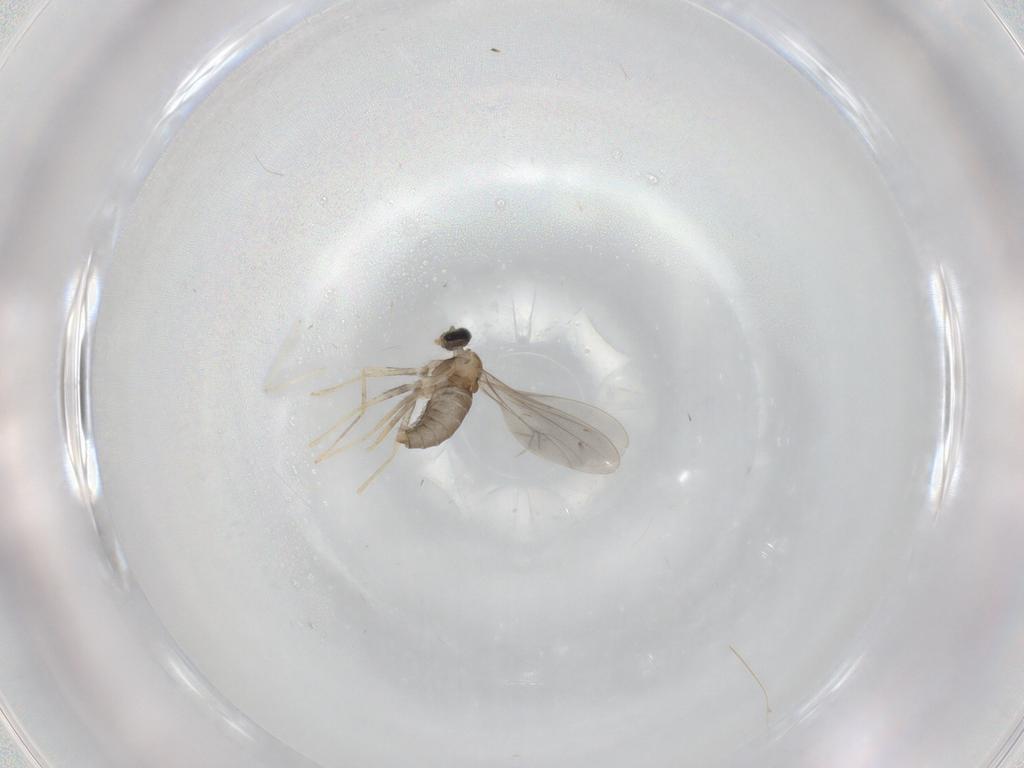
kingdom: Animalia
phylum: Arthropoda
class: Insecta
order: Diptera
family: Cecidomyiidae
